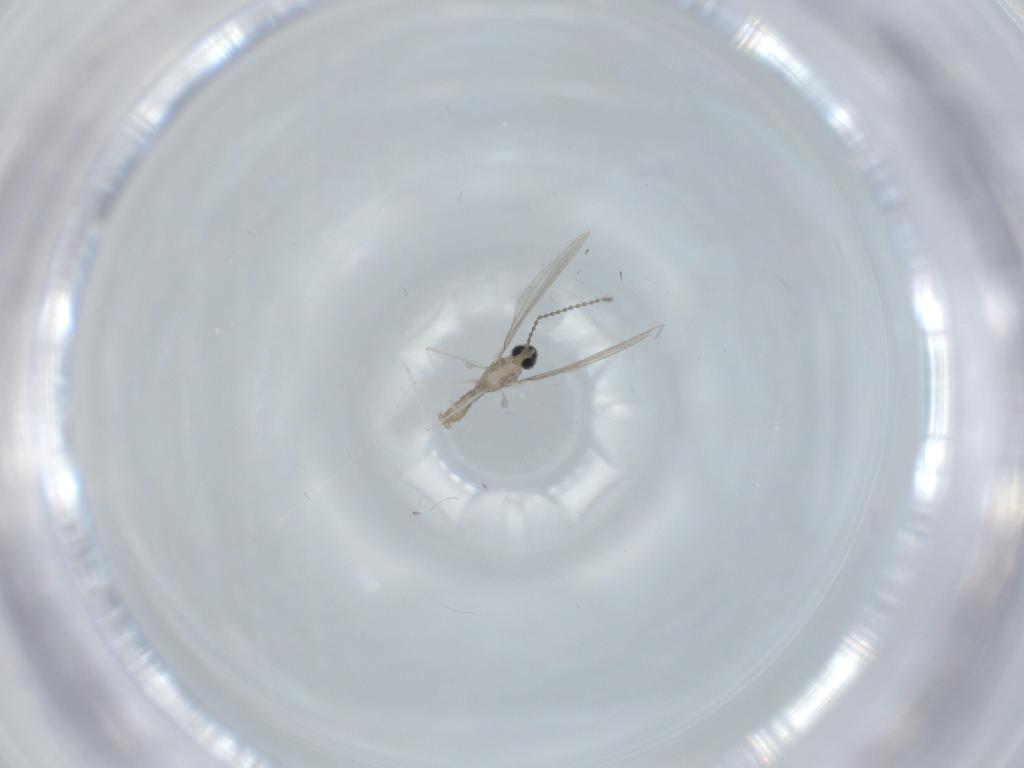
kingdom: Animalia
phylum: Arthropoda
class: Insecta
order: Diptera
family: Cecidomyiidae
